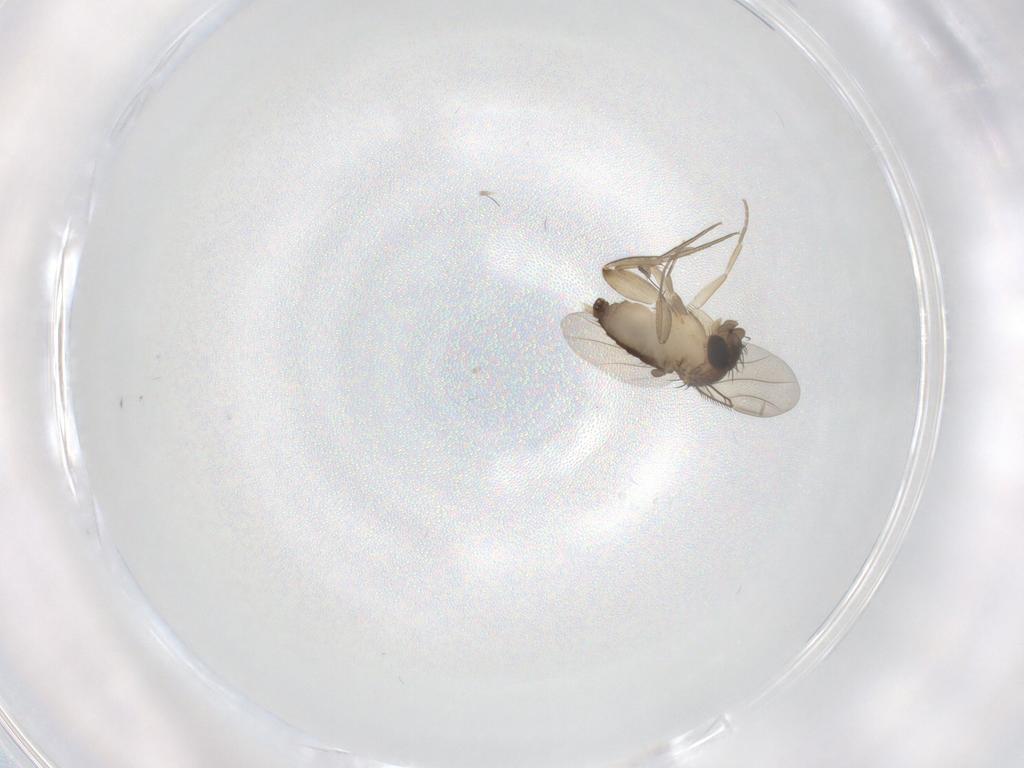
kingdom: Animalia
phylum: Arthropoda
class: Insecta
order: Diptera
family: Phoridae
